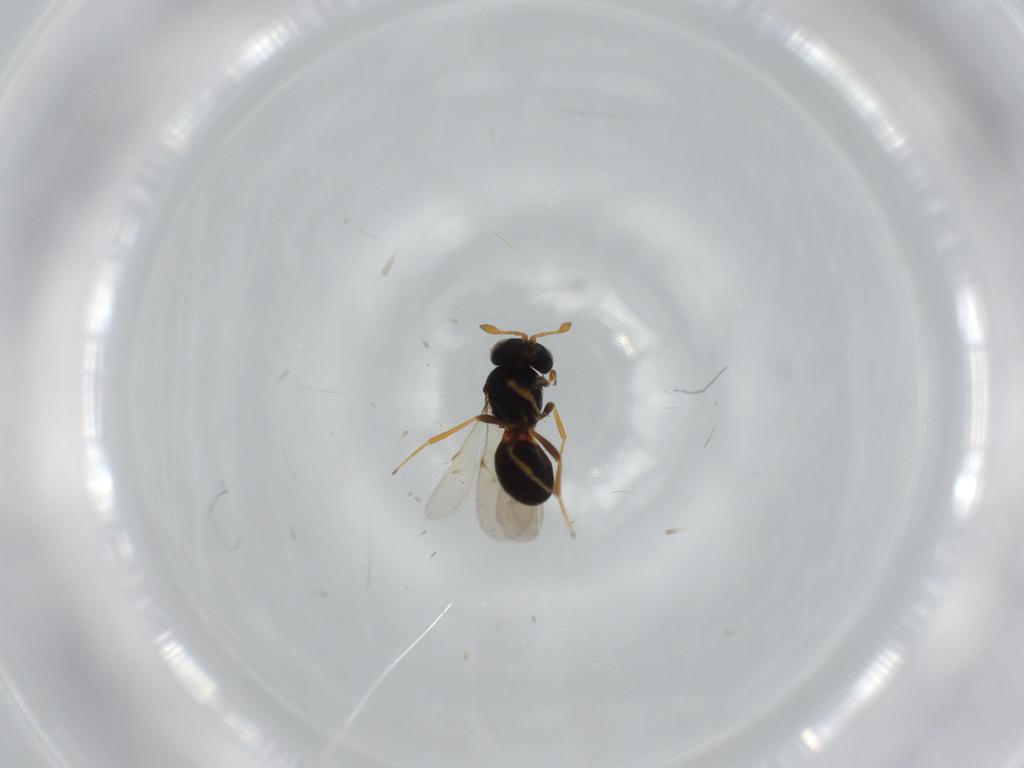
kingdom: Animalia
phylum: Arthropoda
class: Insecta
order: Hymenoptera
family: Scelionidae
